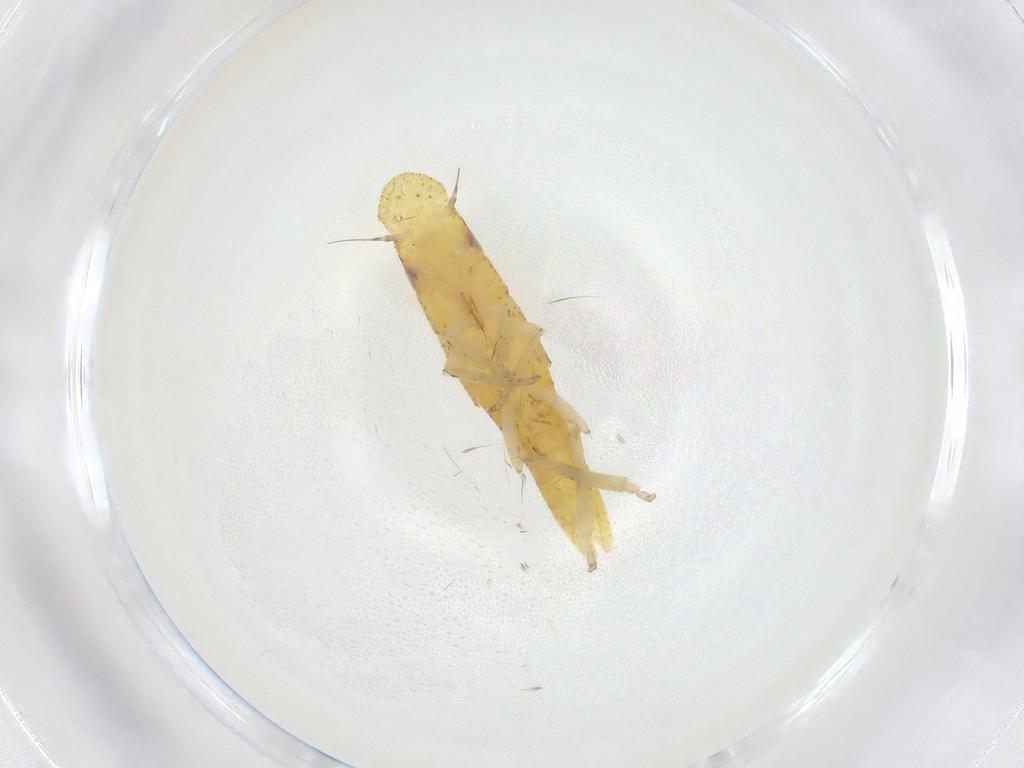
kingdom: Animalia
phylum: Arthropoda
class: Insecta
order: Hemiptera
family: Cicadellidae
